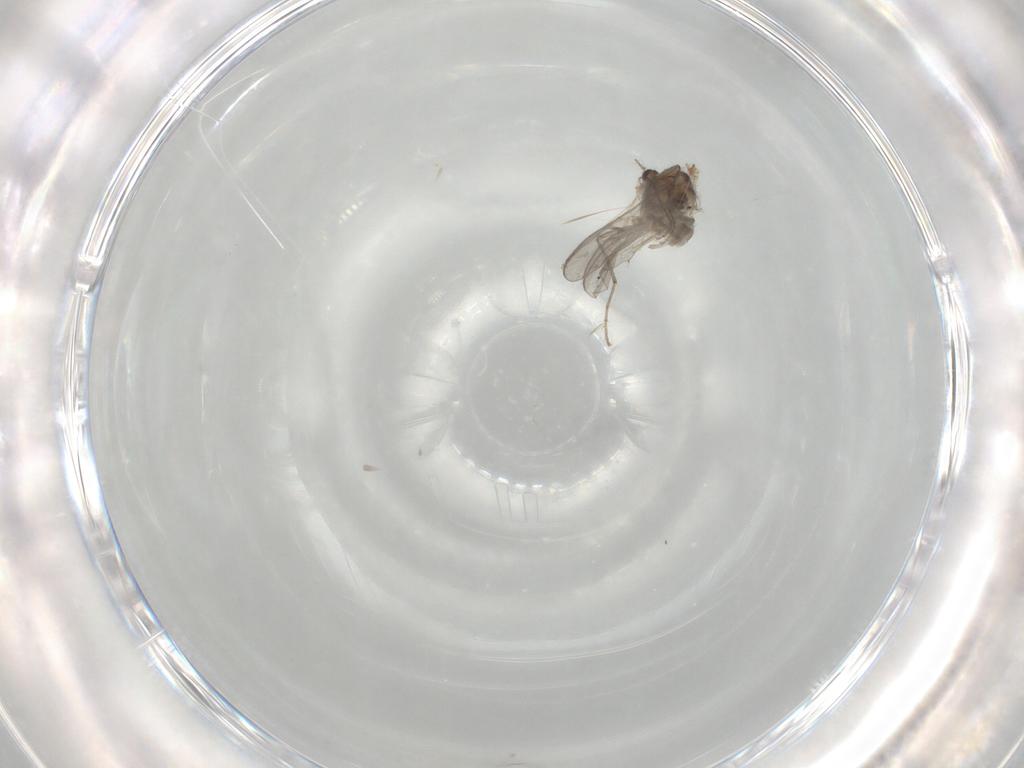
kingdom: Animalia
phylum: Arthropoda
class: Insecta
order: Diptera
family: Chironomidae
